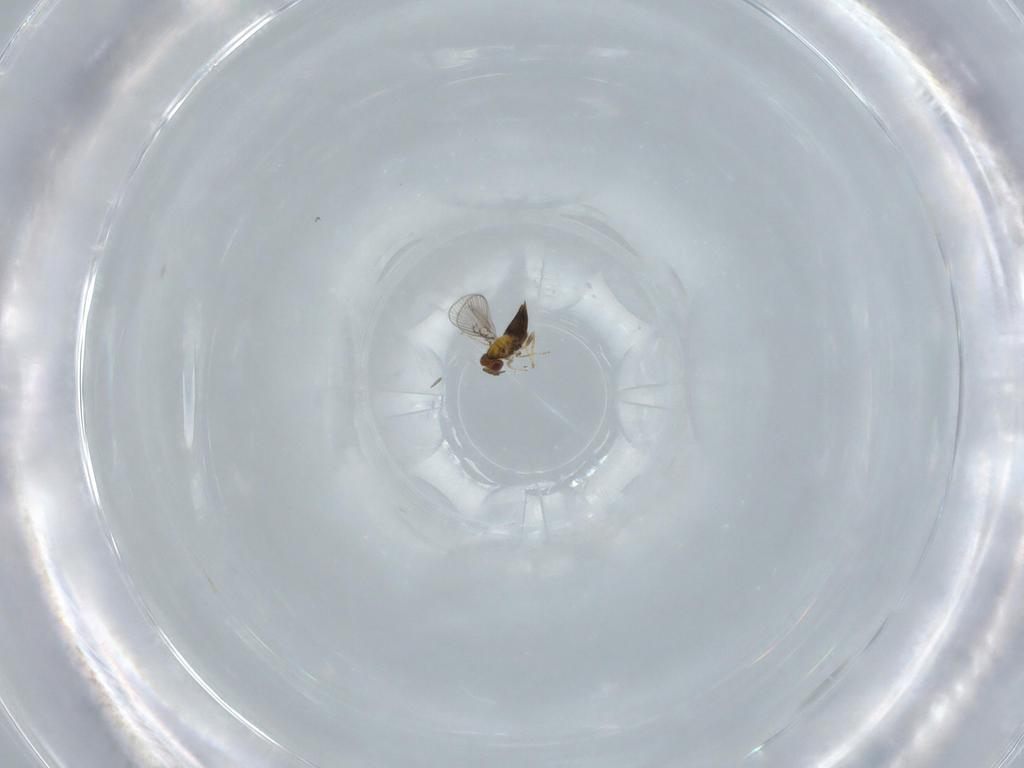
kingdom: Animalia
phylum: Arthropoda
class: Insecta
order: Hymenoptera
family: Trichogrammatidae
